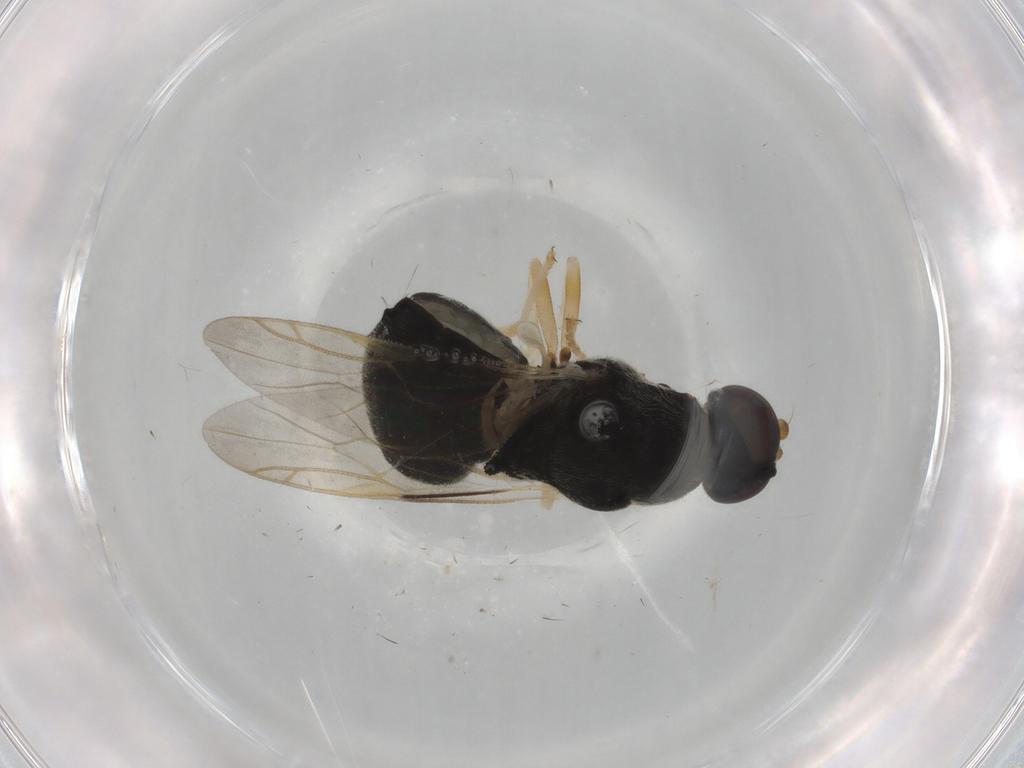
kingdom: Animalia
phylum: Arthropoda
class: Insecta
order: Diptera
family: Stratiomyidae
